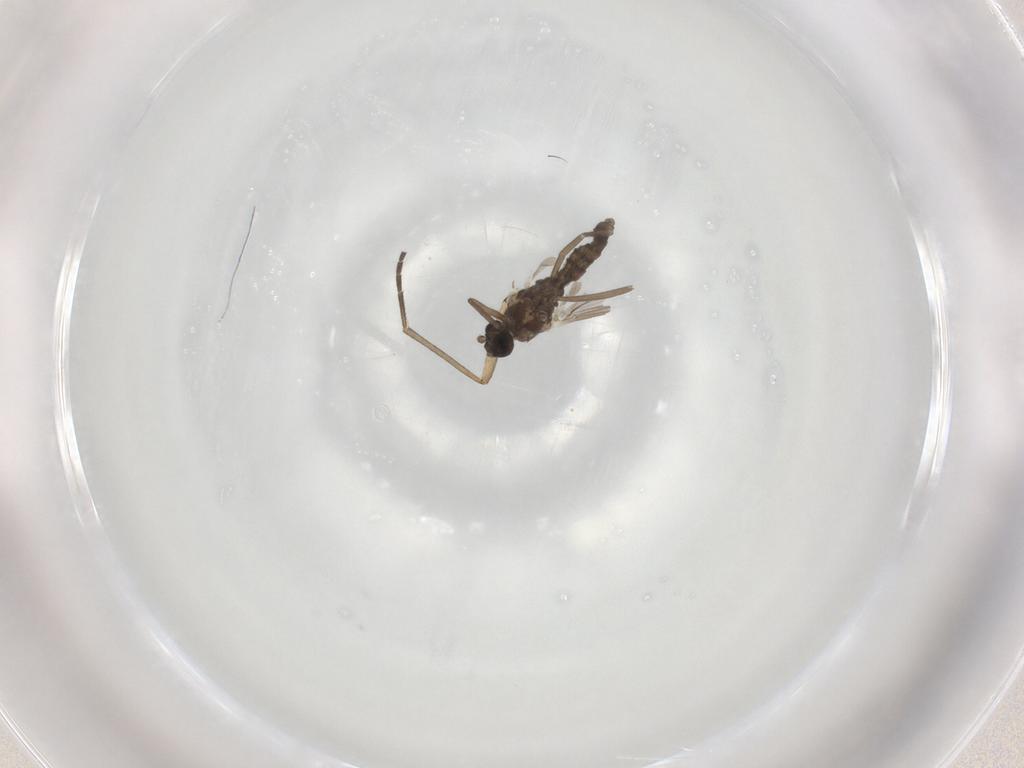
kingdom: Animalia
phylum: Arthropoda
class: Insecta
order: Diptera
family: Cecidomyiidae
